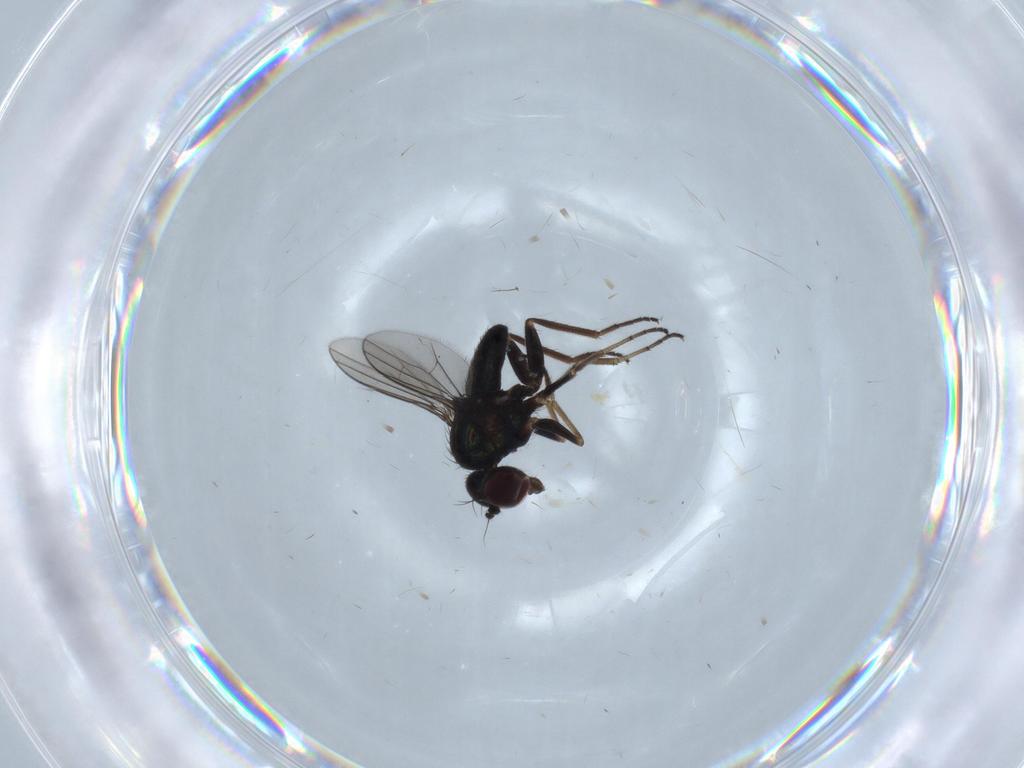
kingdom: Animalia
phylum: Arthropoda
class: Insecta
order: Diptera
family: Dolichopodidae
